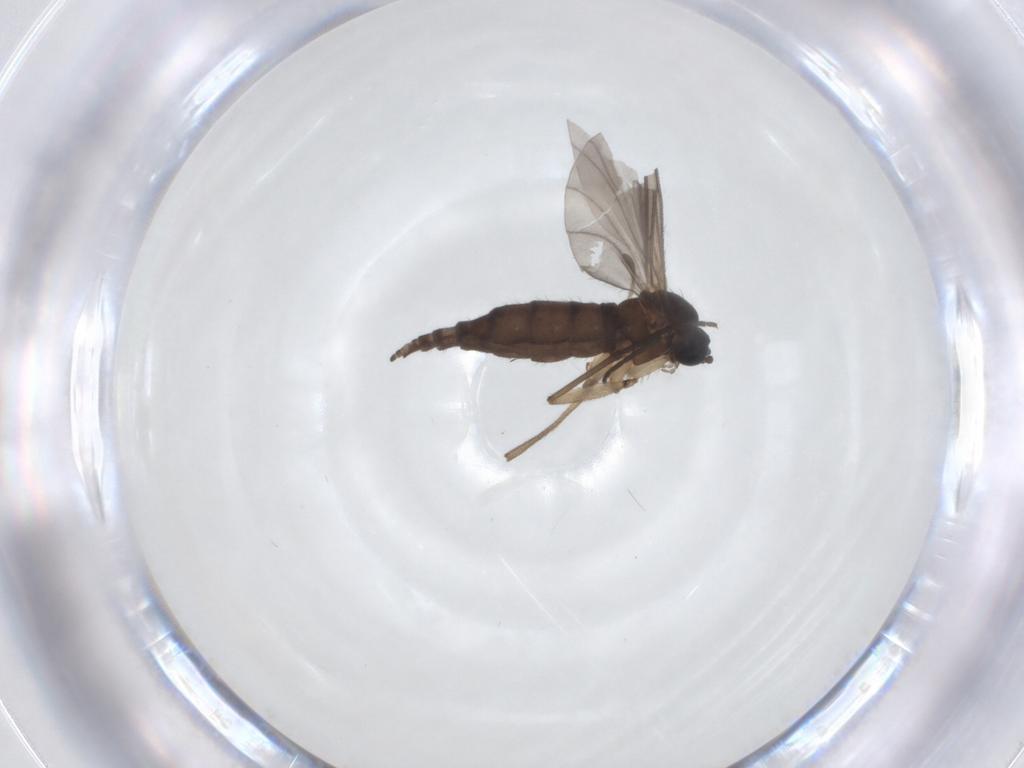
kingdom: Animalia
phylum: Arthropoda
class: Insecta
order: Diptera
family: Sciaridae
